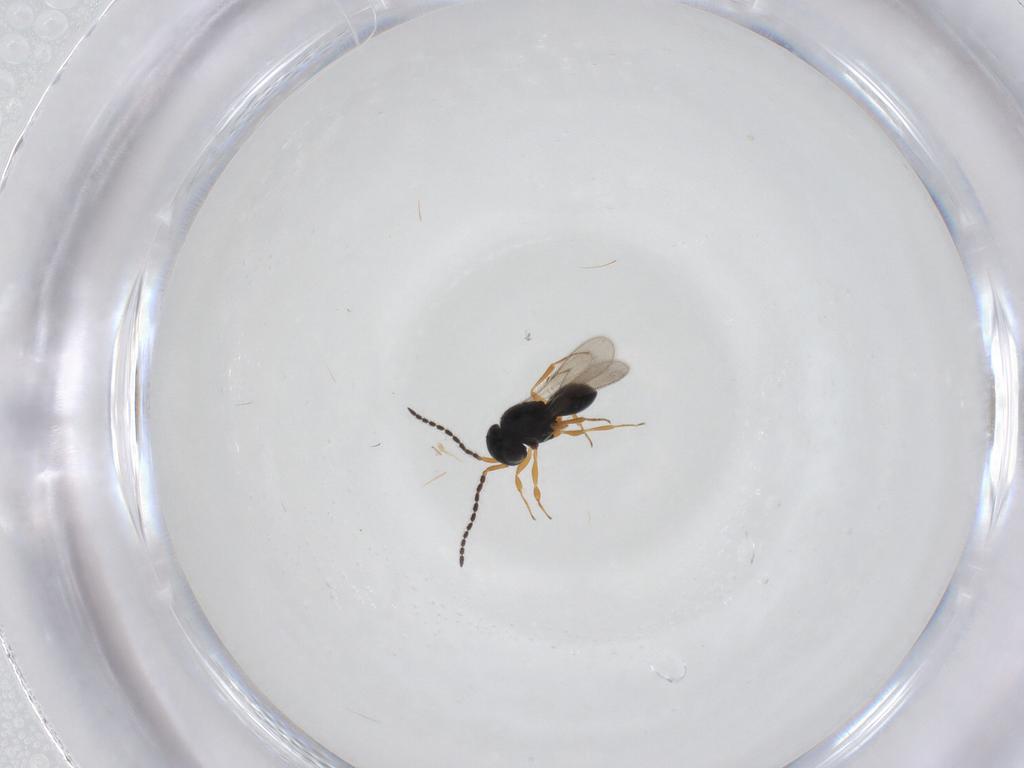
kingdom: Animalia
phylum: Arthropoda
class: Insecta
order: Hymenoptera
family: Scelionidae
